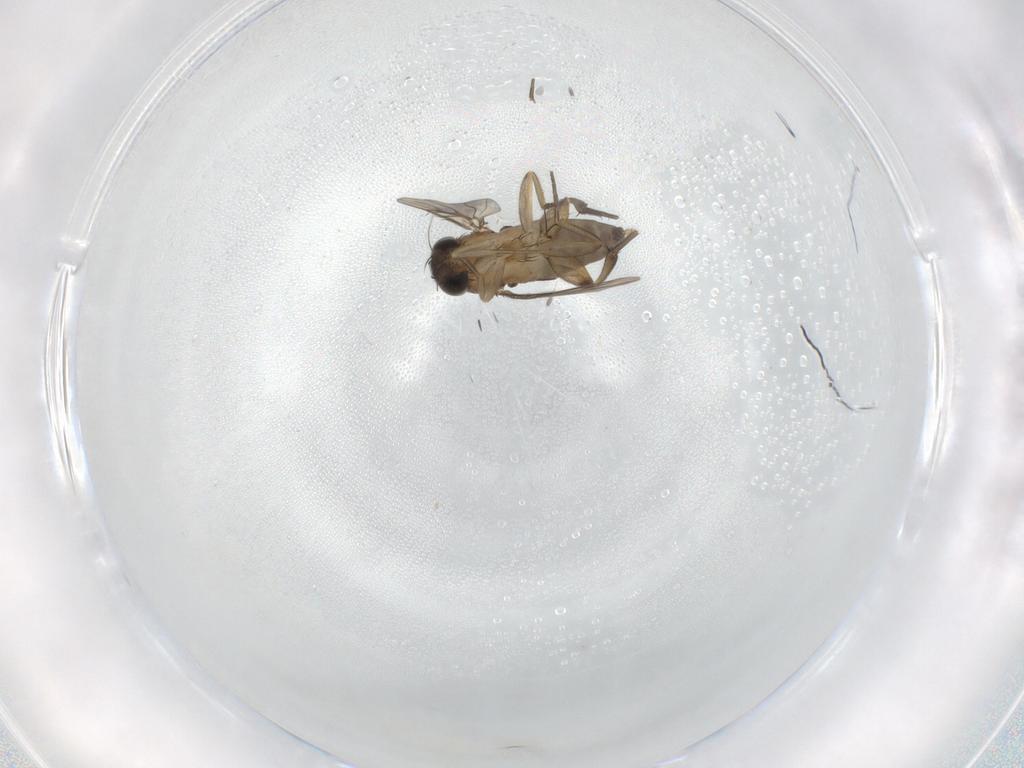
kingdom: Animalia
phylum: Arthropoda
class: Insecta
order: Diptera
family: Phoridae
